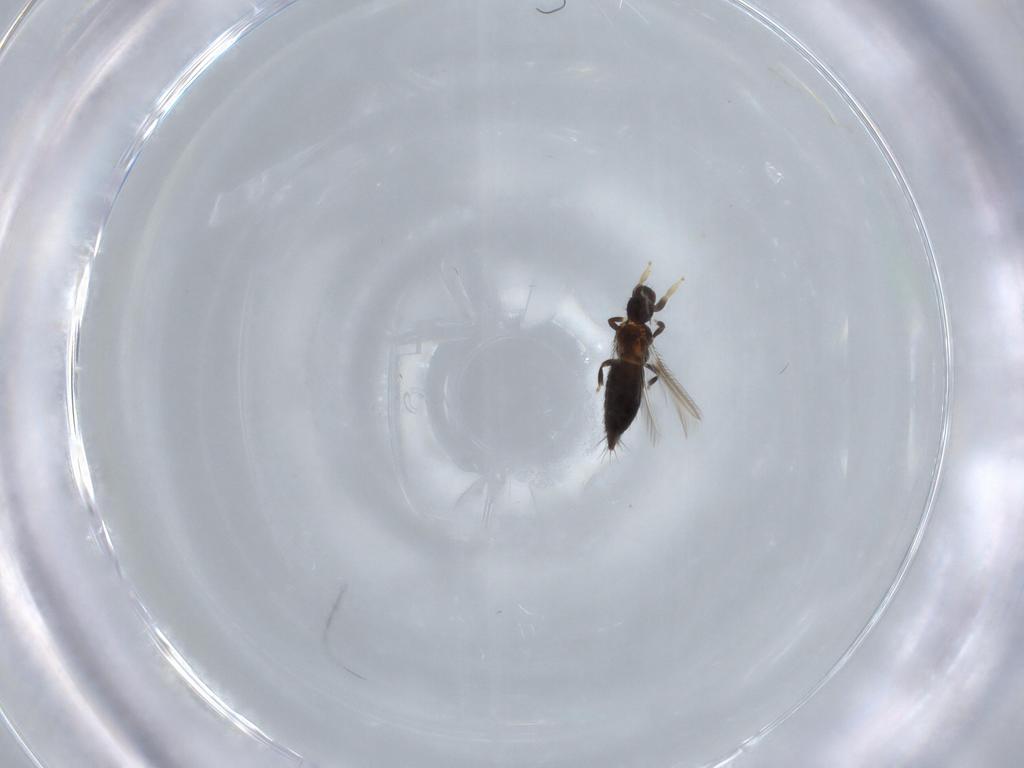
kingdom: Animalia
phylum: Arthropoda
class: Insecta
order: Thysanoptera
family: Thripidae
